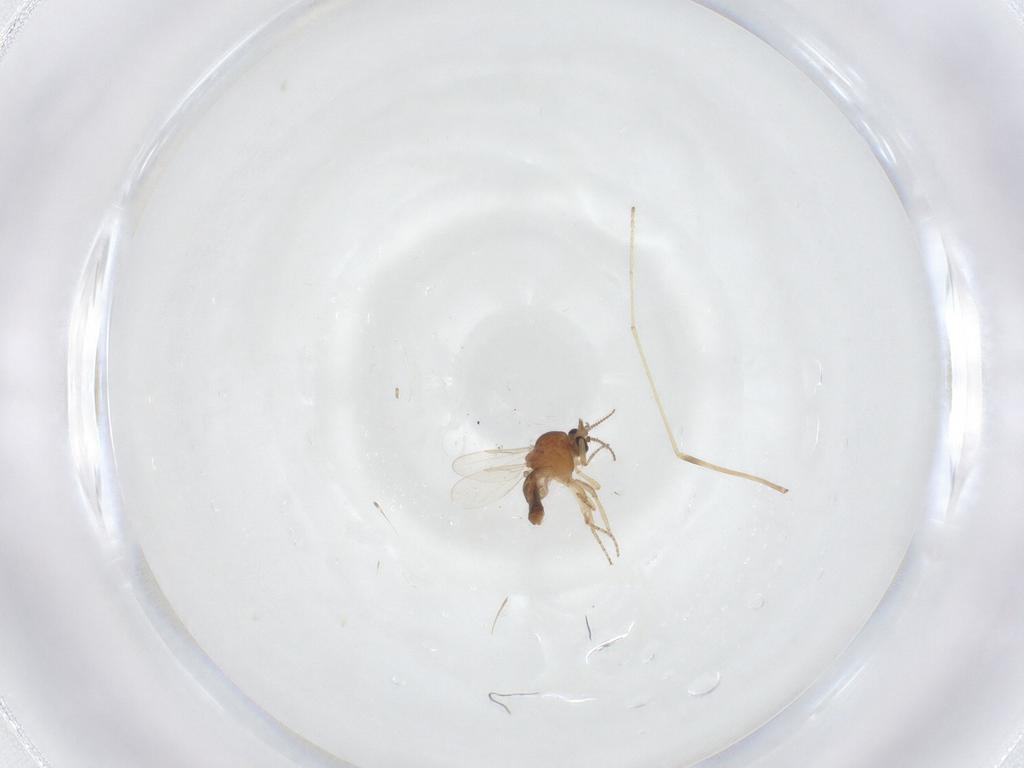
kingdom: Animalia
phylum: Arthropoda
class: Insecta
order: Diptera
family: Ceratopogonidae
